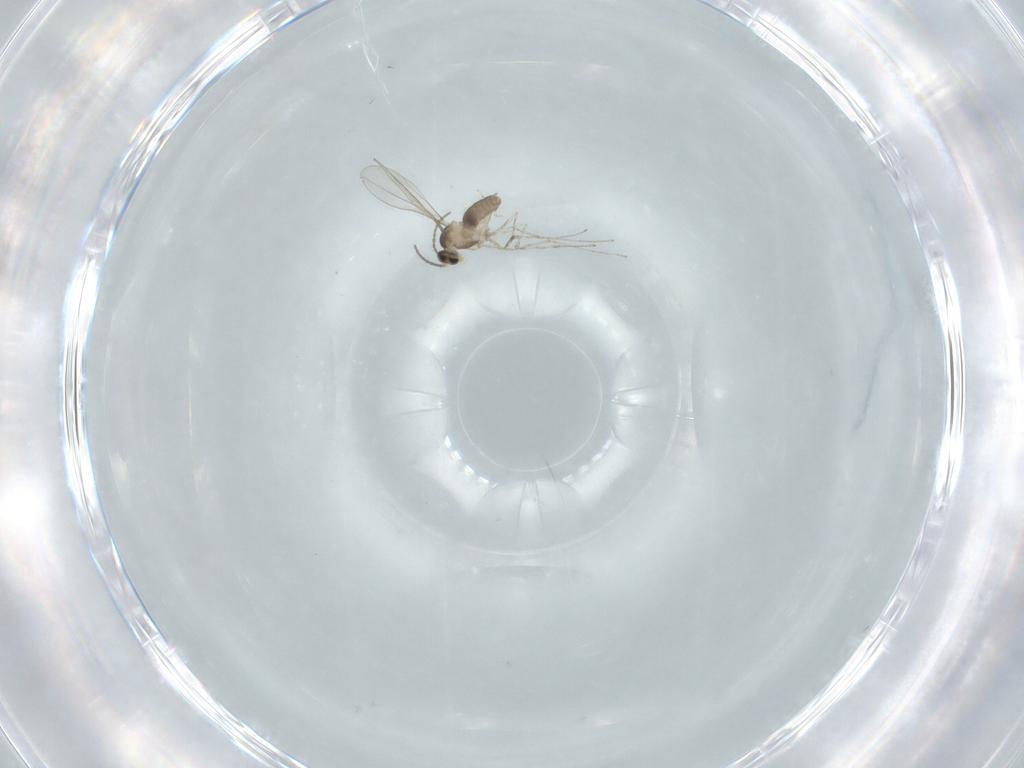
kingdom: Animalia
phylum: Arthropoda
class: Insecta
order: Diptera
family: Cecidomyiidae
